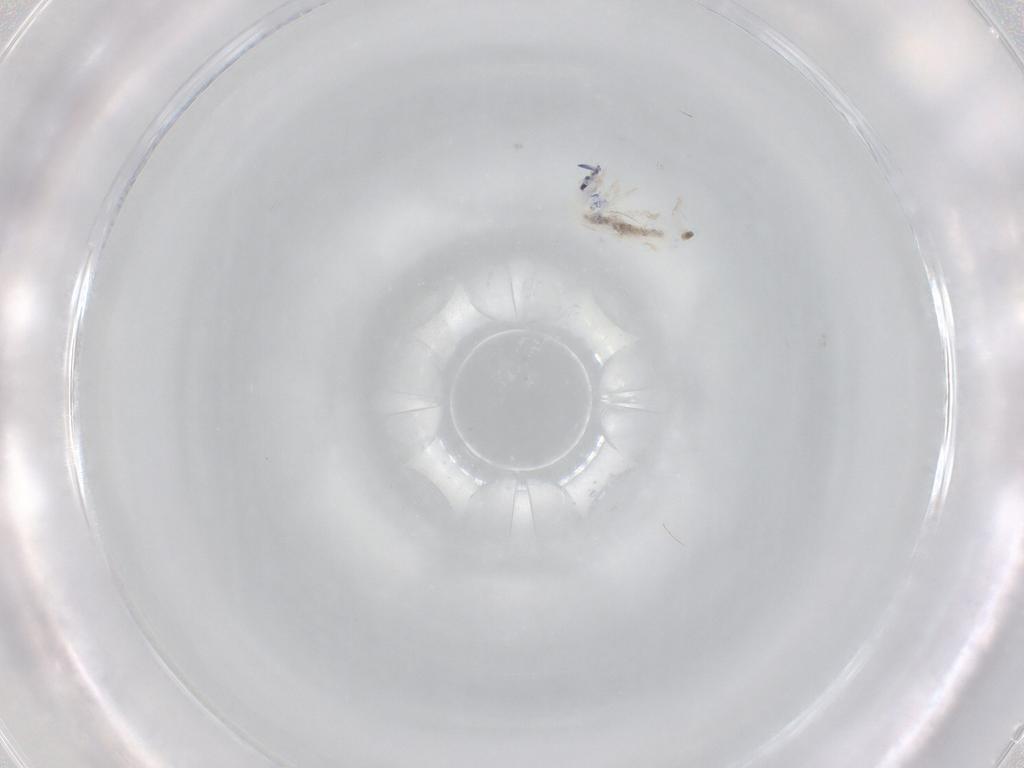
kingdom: Animalia
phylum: Arthropoda
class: Collembola
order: Entomobryomorpha
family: Entomobryidae
